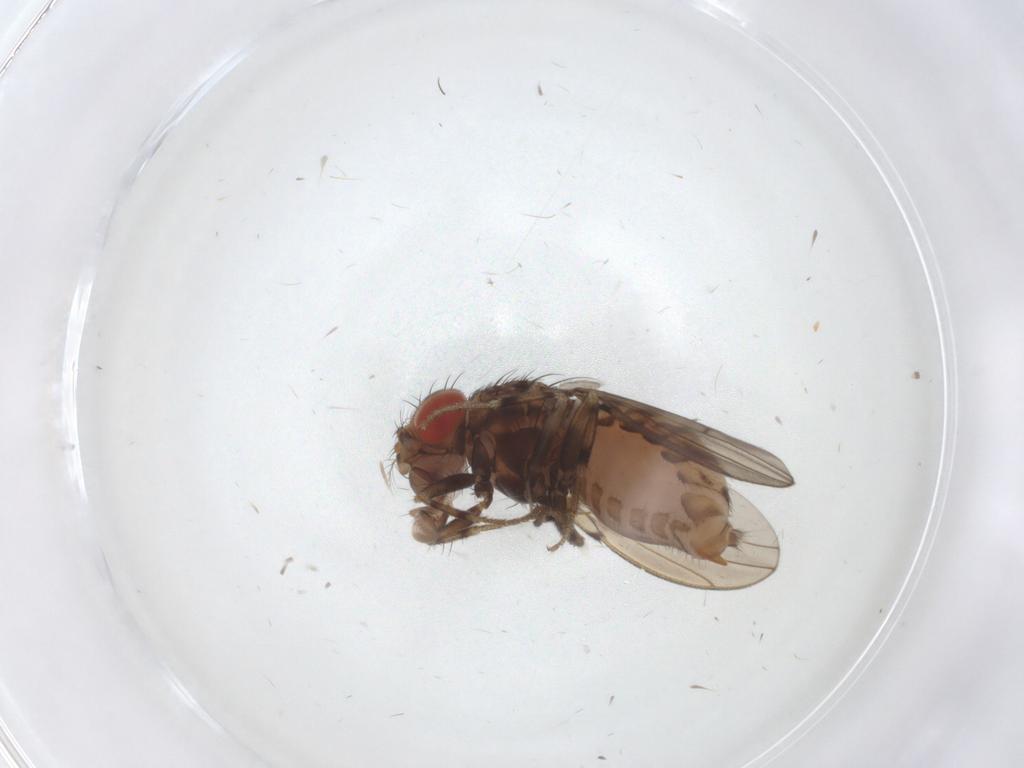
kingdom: Animalia
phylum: Arthropoda
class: Insecta
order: Diptera
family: Drosophilidae
